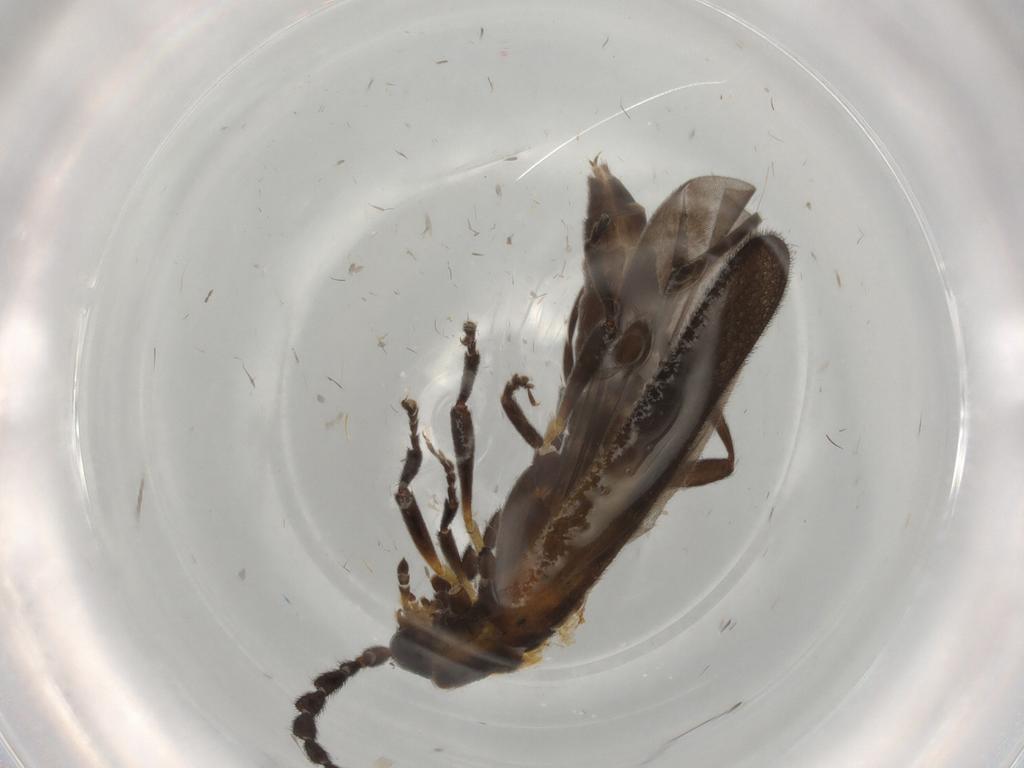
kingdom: Animalia
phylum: Arthropoda
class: Insecta
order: Coleoptera
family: Lycidae
